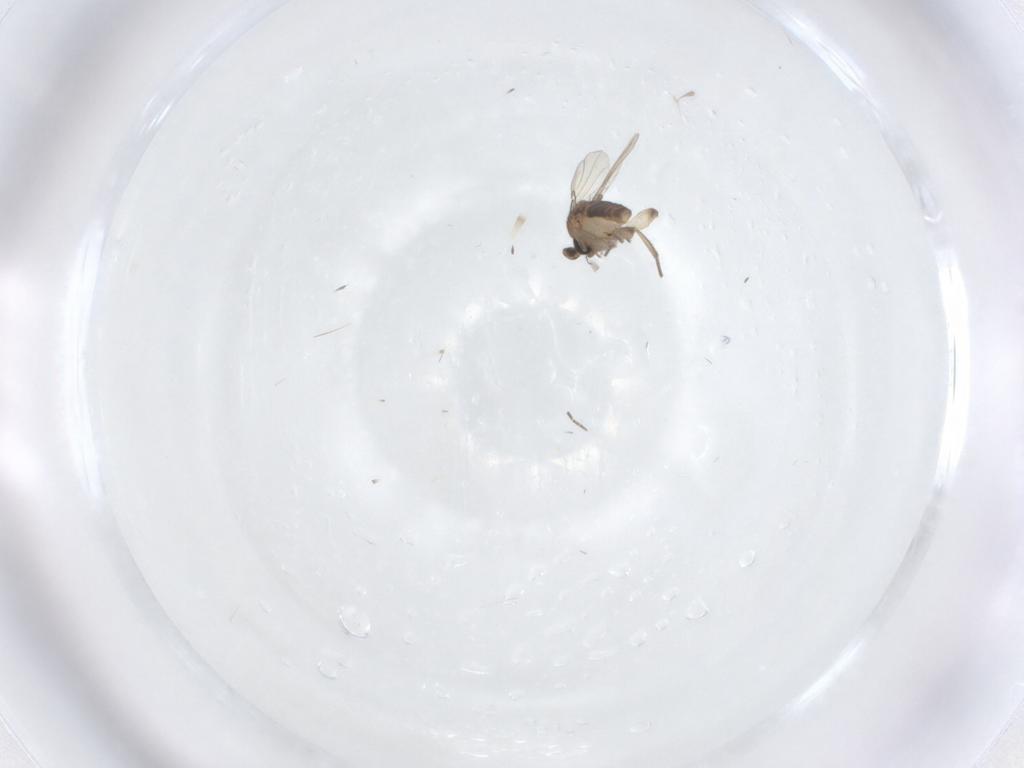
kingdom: Animalia
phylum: Arthropoda
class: Insecta
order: Diptera
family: Phoridae
